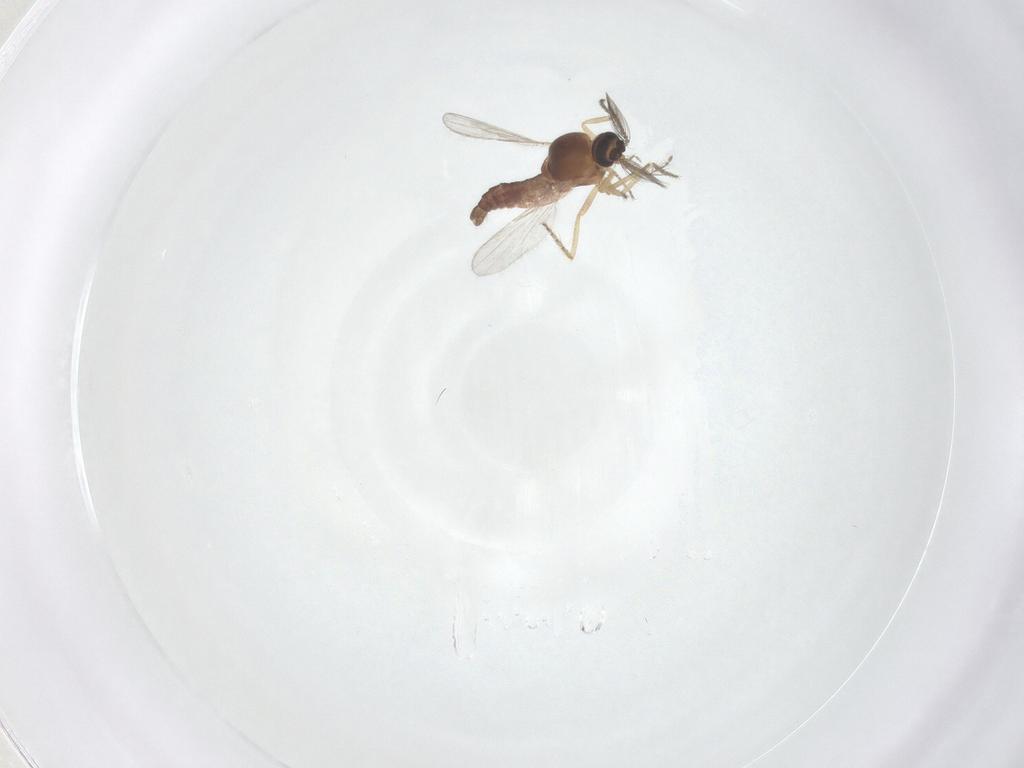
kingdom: Animalia
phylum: Arthropoda
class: Insecta
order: Diptera
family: Ceratopogonidae
